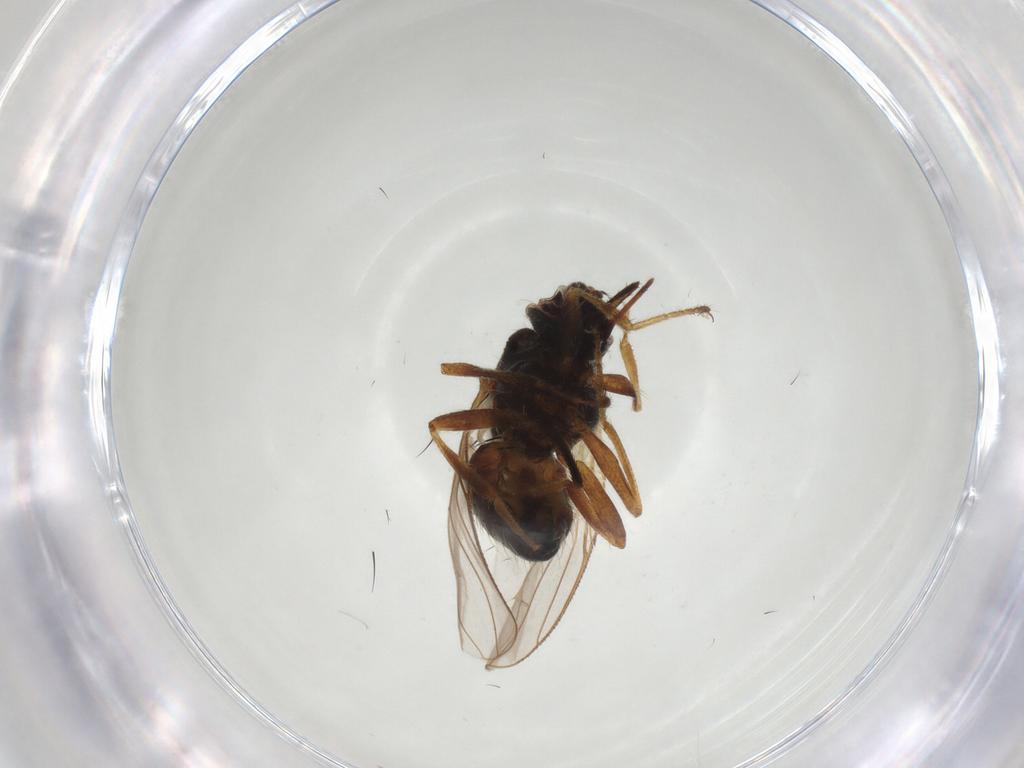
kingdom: Animalia
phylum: Arthropoda
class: Insecta
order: Diptera
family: Muscidae
